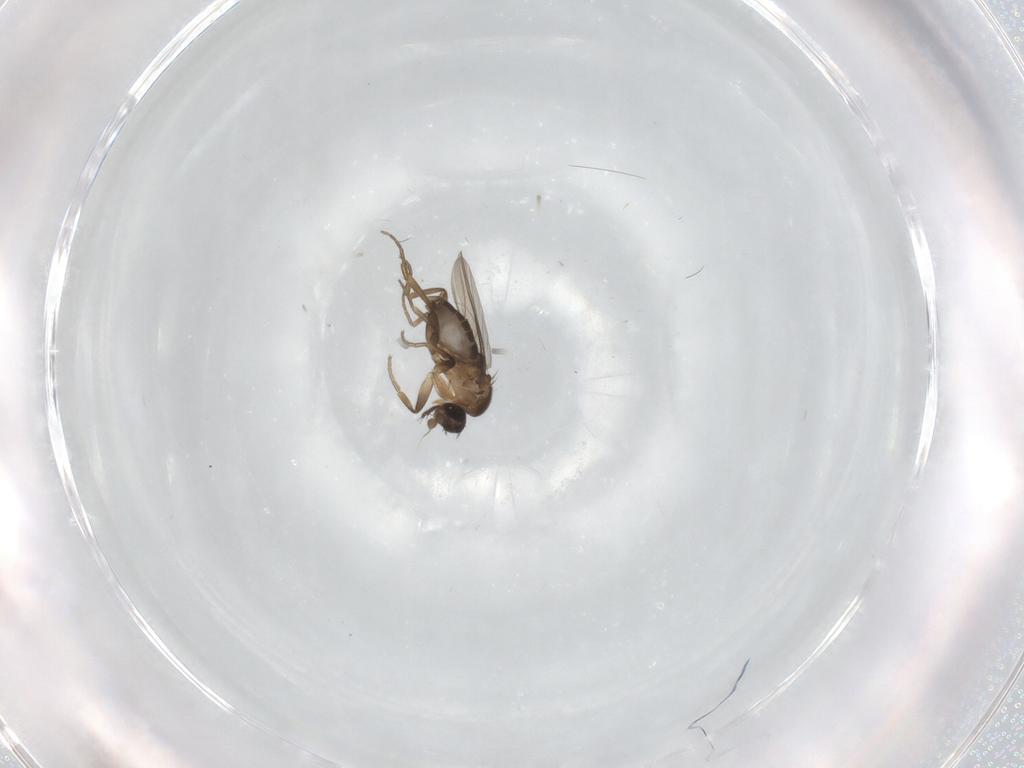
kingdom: Animalia
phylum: Arthropoda
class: Insecta
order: Diptera
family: Phoridae
